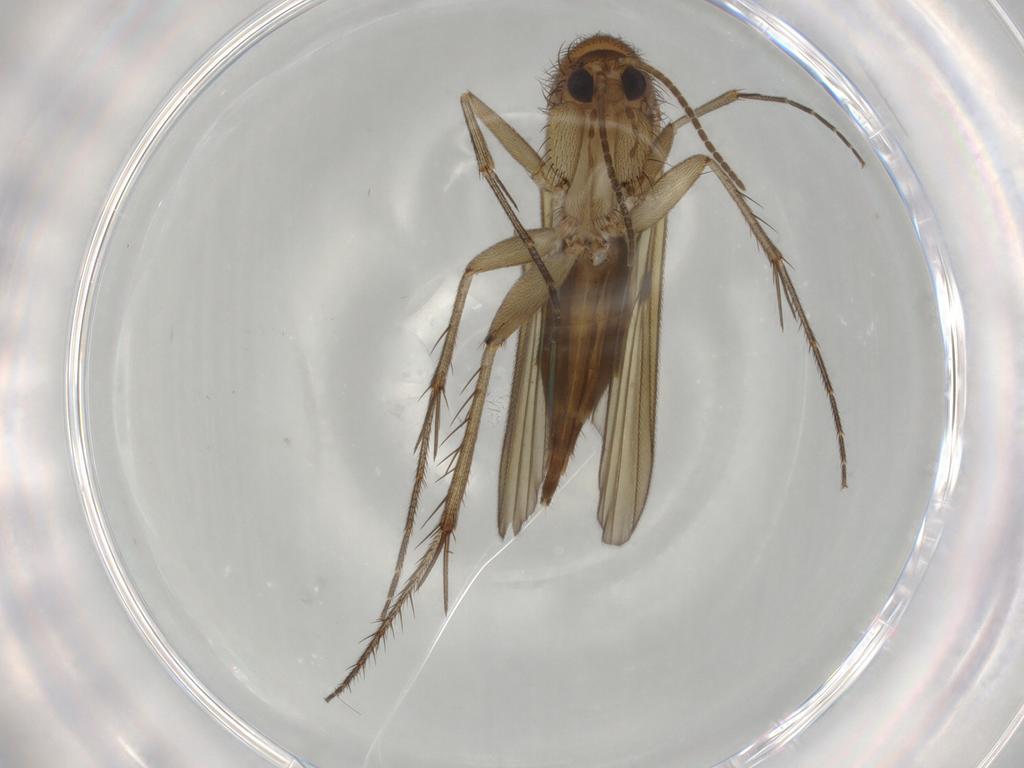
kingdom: Animalia
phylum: Arthropoda
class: Insecta
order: Diptera
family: Mycetophilidae
